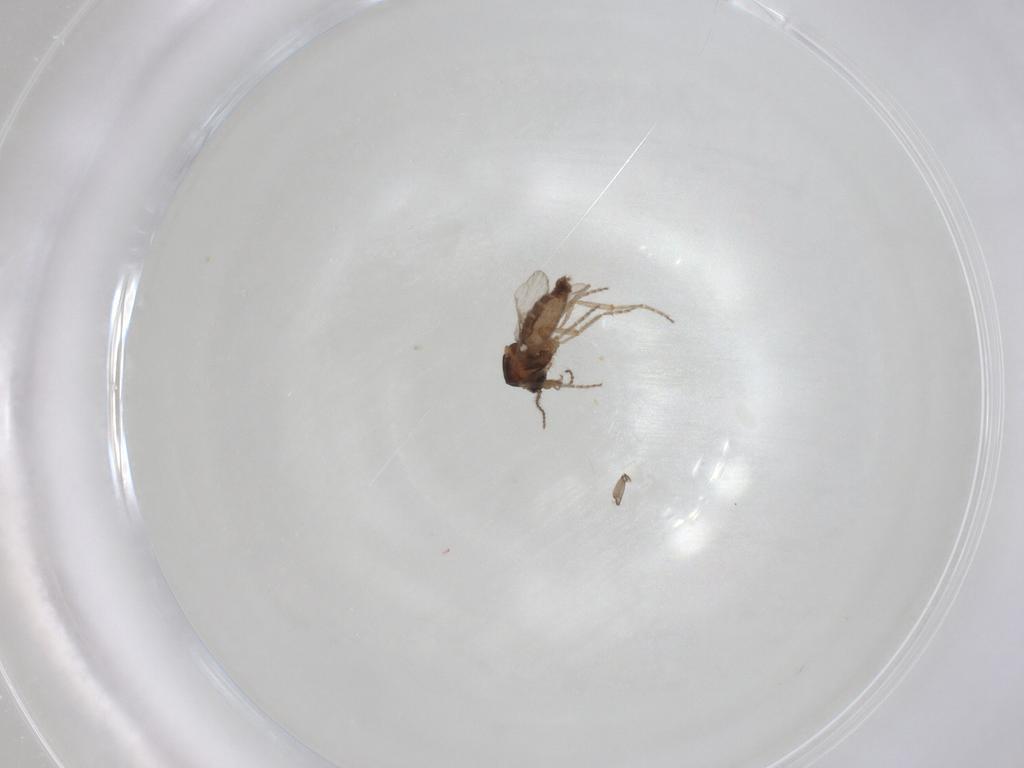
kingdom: Animalia
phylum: Arthropoda
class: Insecta
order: Diptera
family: Ceratopogonidae
